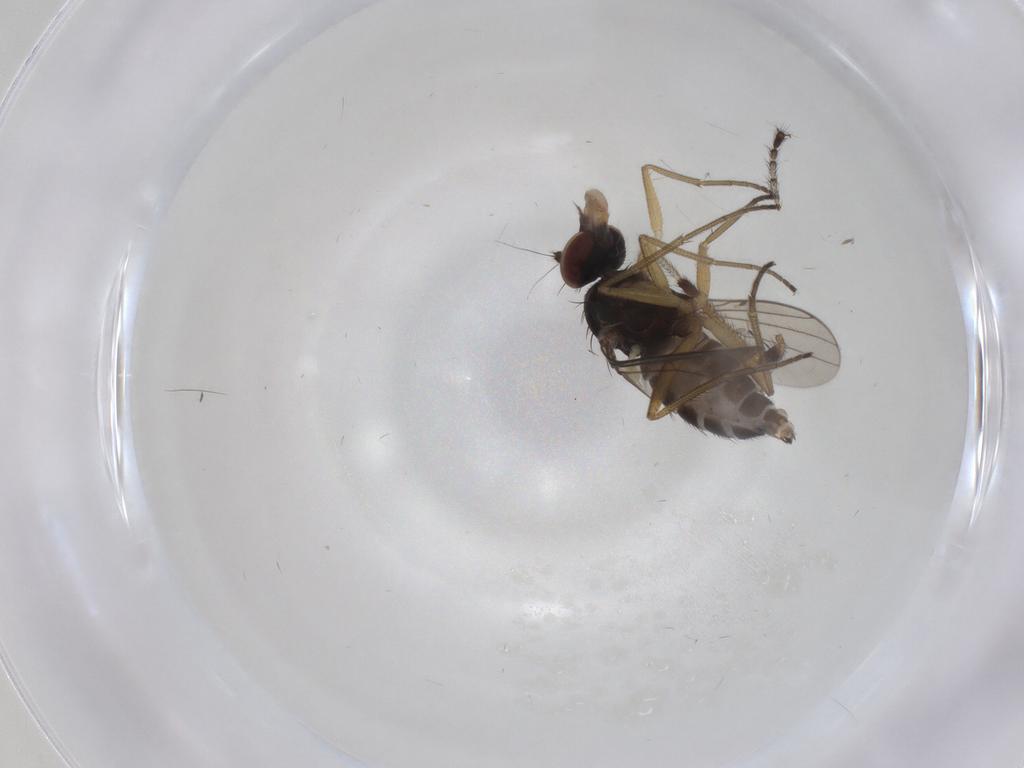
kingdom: Animalia
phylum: Arthropoda
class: Insecta
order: Diptera
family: Dolichopodidae
